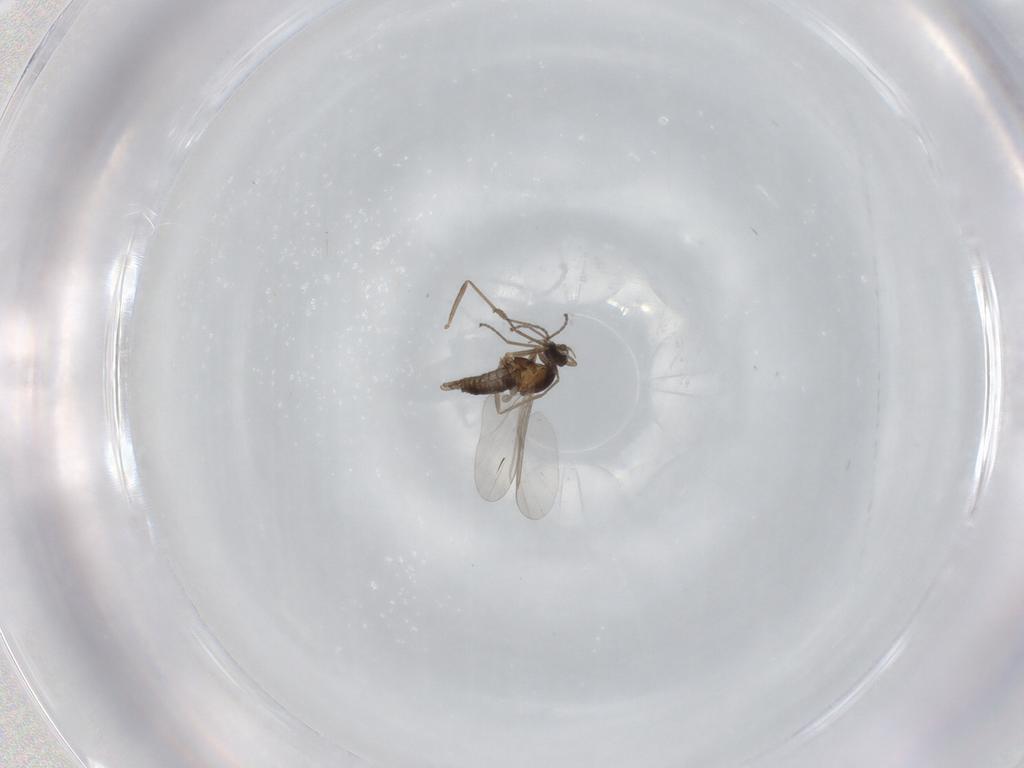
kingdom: Animalia
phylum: Arthropoda
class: Insecta
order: Diptera
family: Cecidomyiidae
